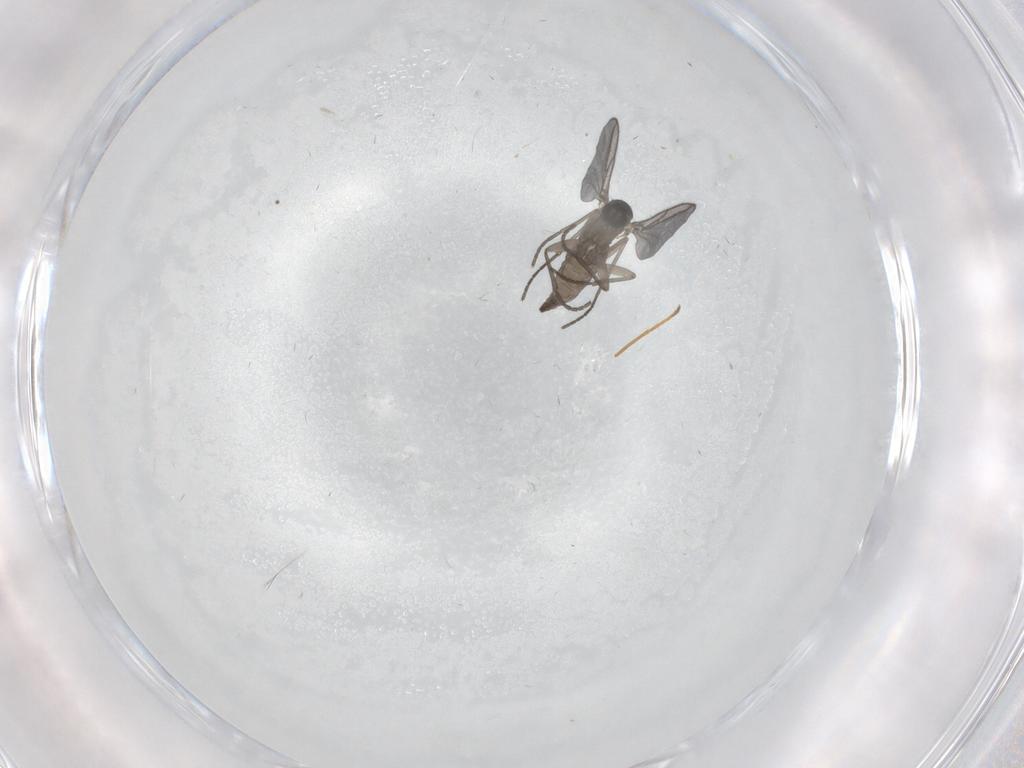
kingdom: Animalia
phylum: Arthropoda
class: Insecta
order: Diptera
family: Sciaridae
